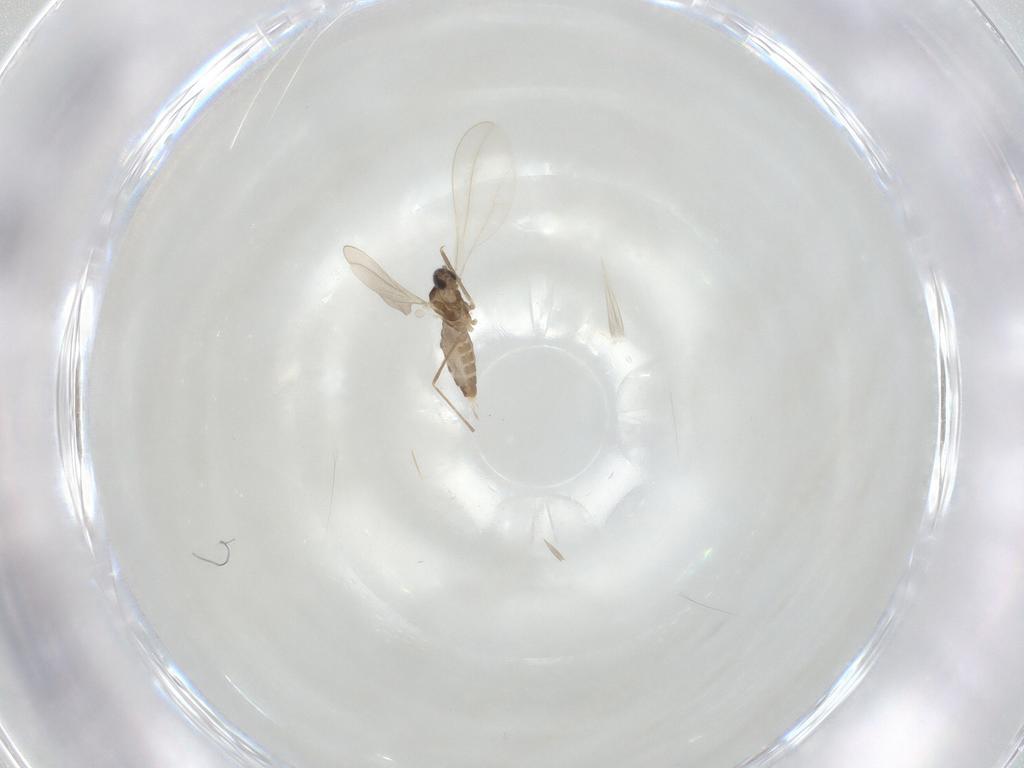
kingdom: Animalia
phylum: Arthropoda
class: Insecta
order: Diptera
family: Cecidomyiidae
